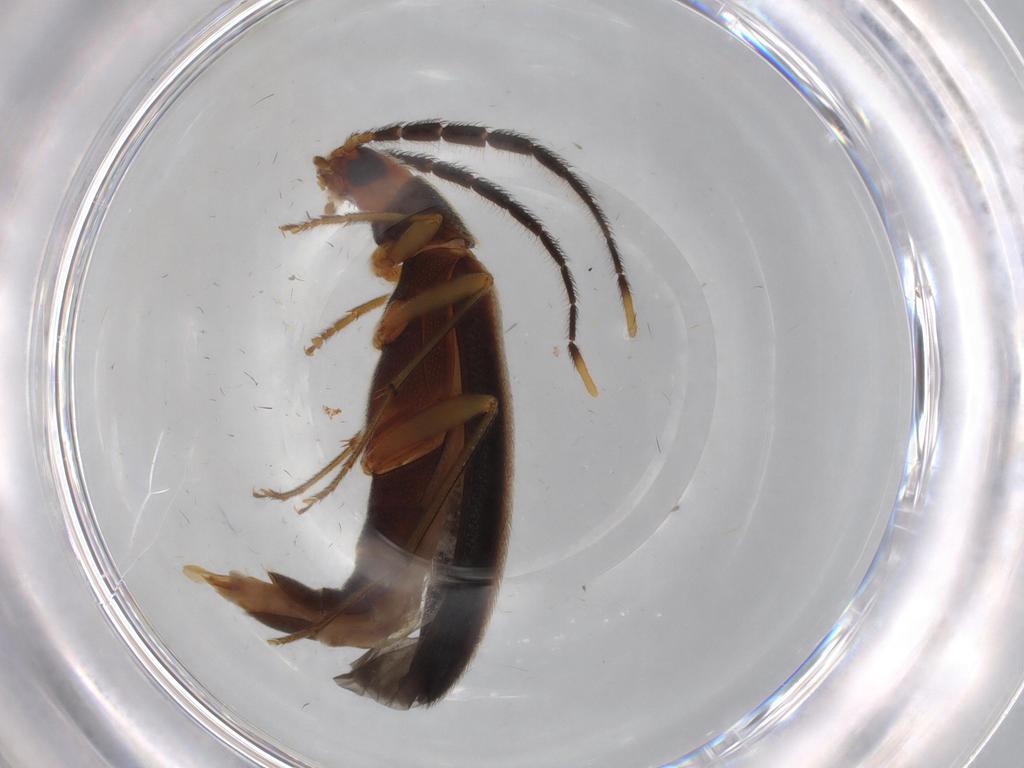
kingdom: Animalia
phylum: Arthropoda
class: Insecta
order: Coleoptera
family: Melandryidae
